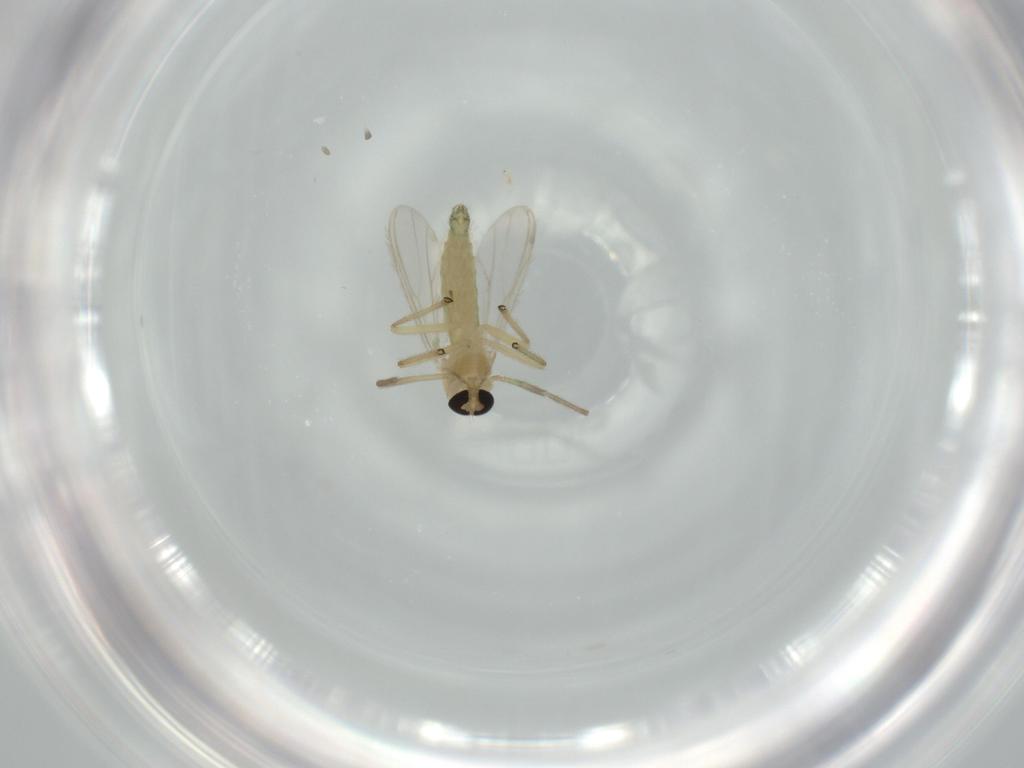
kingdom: Animalia
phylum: Arthropoda
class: Insecta
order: Diptera
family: Chironomidae
